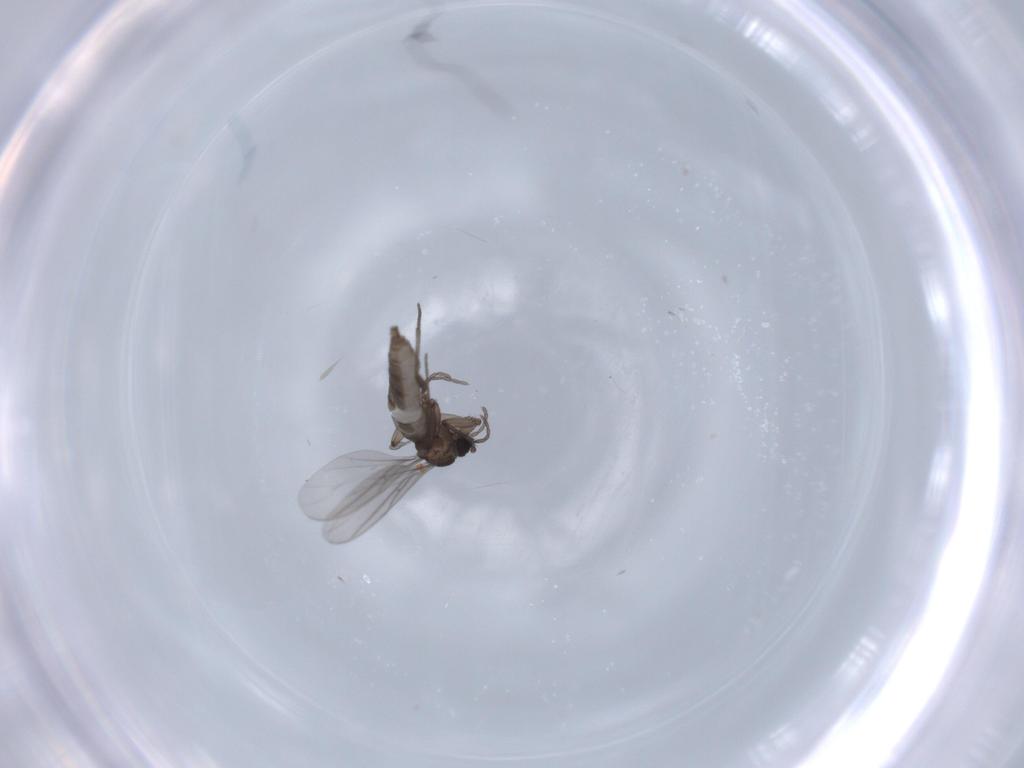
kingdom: Animalia
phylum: Arthropoda
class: Insecta
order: Diptera
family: Sciaridae
